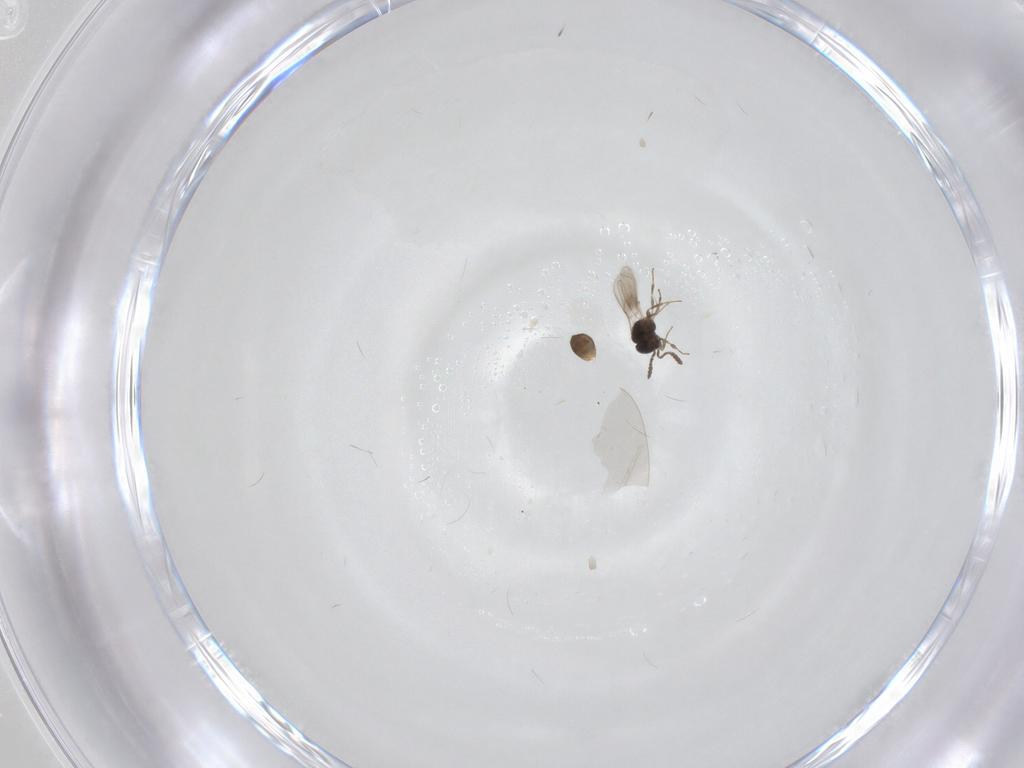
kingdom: Animalia
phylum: Arthropoda
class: Insecta
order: Hymenoptera
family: Scelionidae
